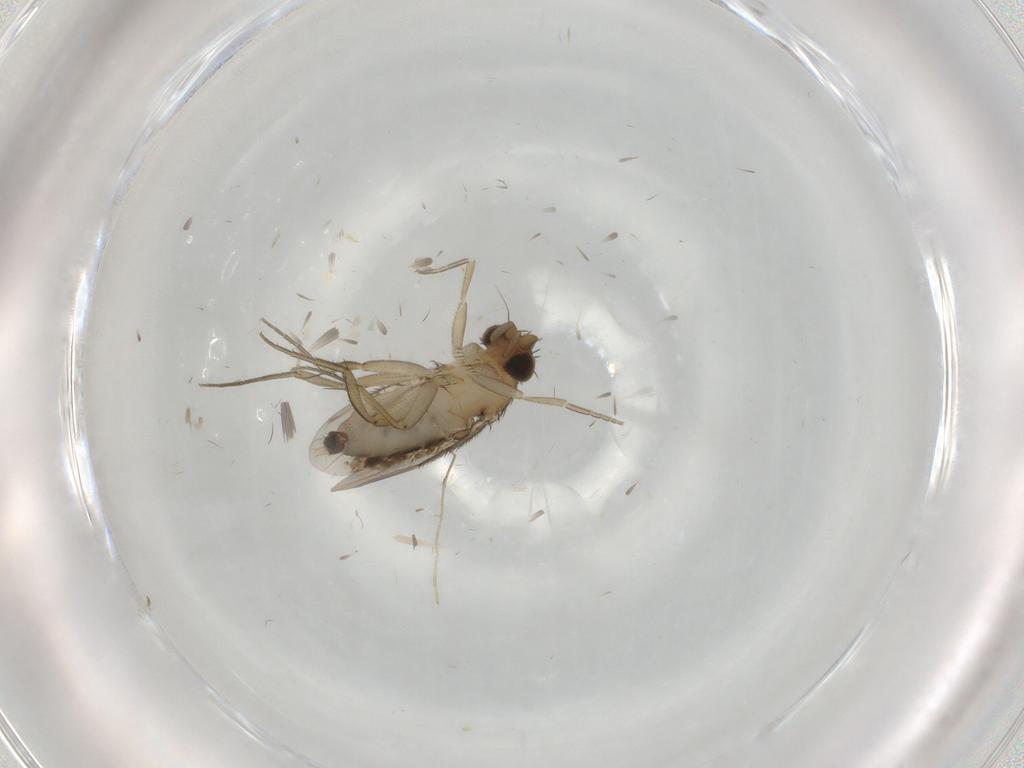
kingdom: Animalia
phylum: Arthropoda
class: Insecta
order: Diptera
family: Phoridae
